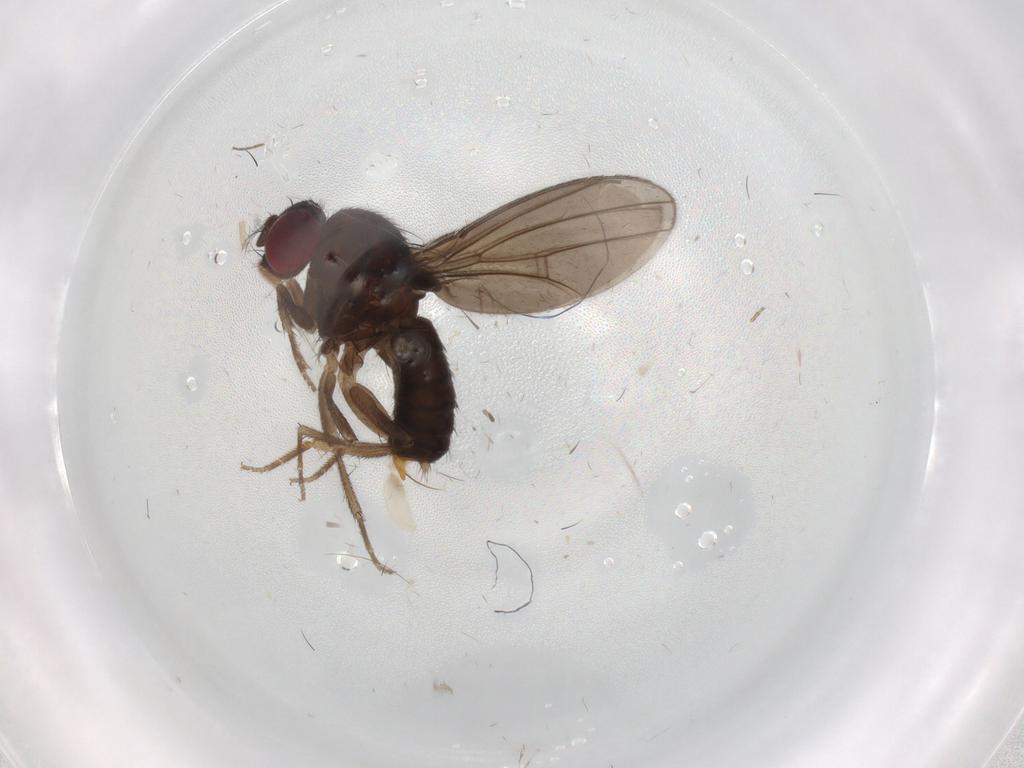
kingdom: Animalia
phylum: Arthropoda
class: Insecta
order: Diptera
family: Drosophilidae
